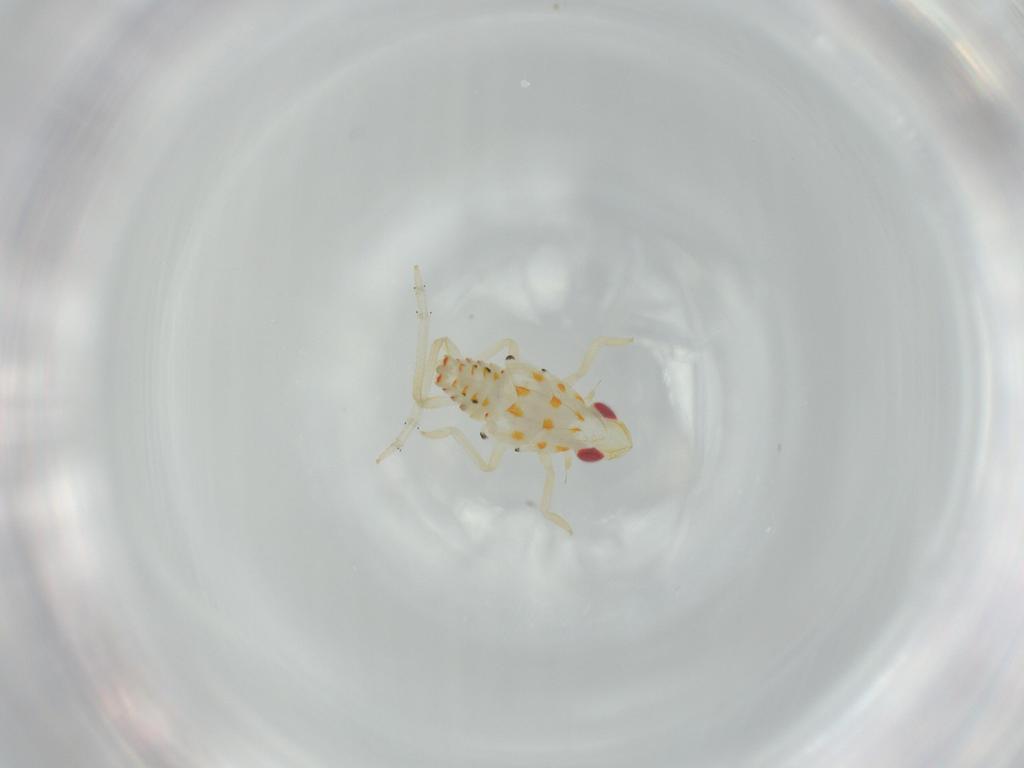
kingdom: Animalia
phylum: Arthropoda
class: Insecta
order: Hemiptera
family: Tropiduchidae
